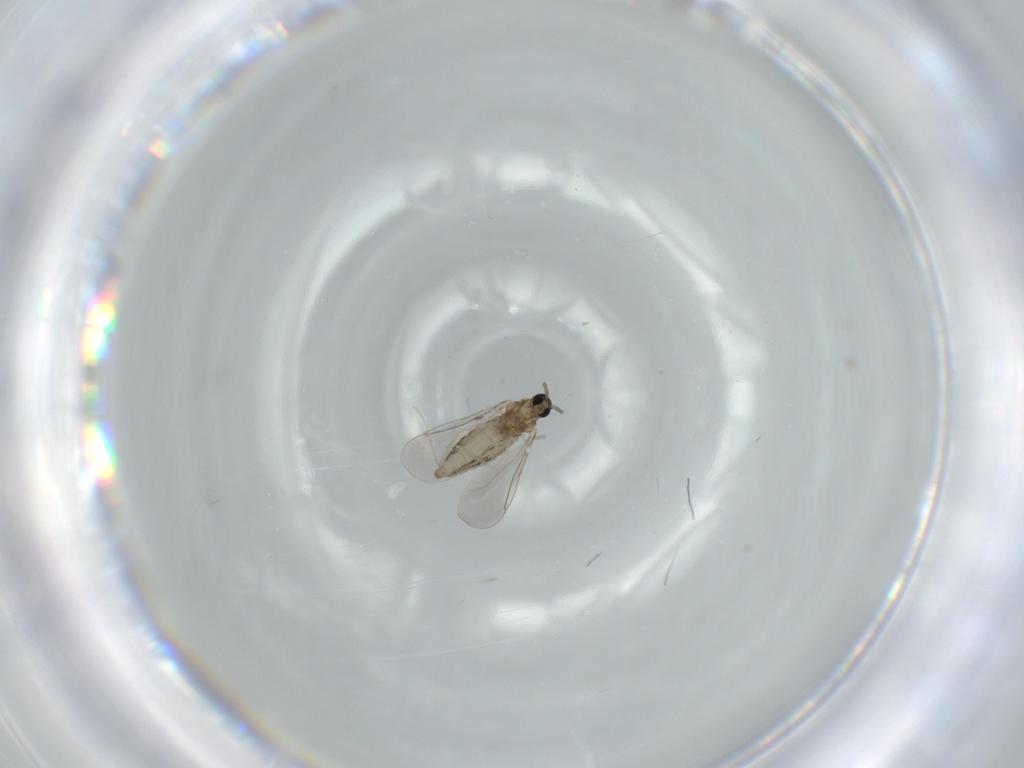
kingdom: Animalia
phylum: Arthropoda
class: Insecta
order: Diptera
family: Cecidomyiidae
